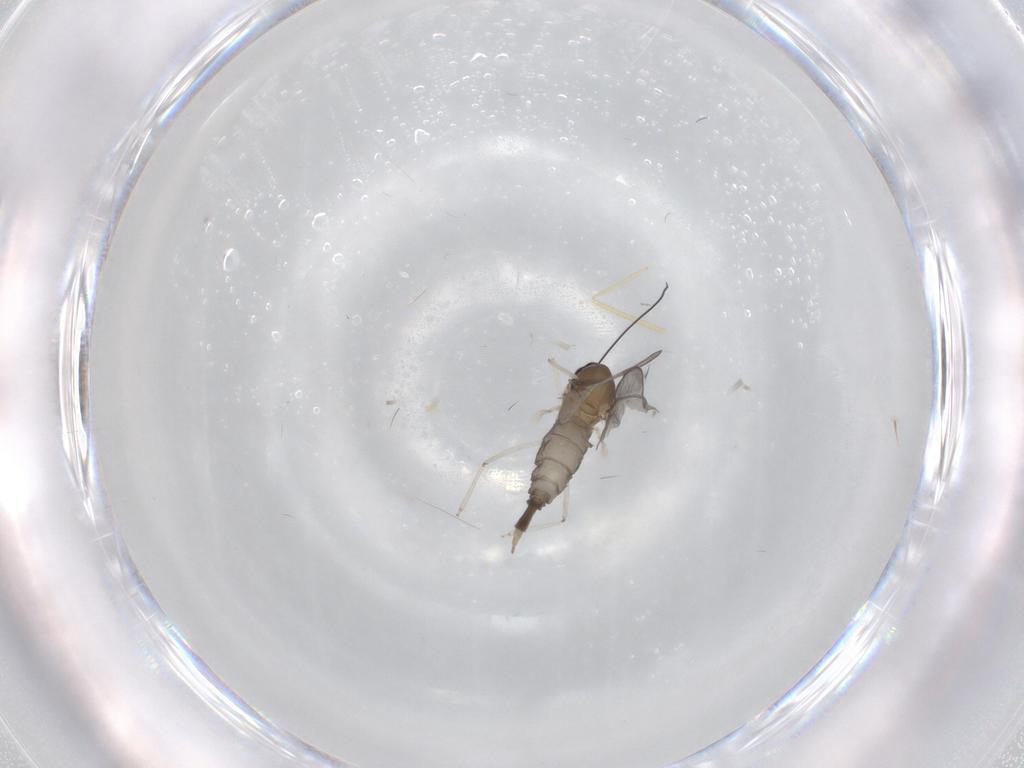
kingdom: Animalia
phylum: Arthropoda
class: Insecta
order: Diptera
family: Cecidomyiidae
